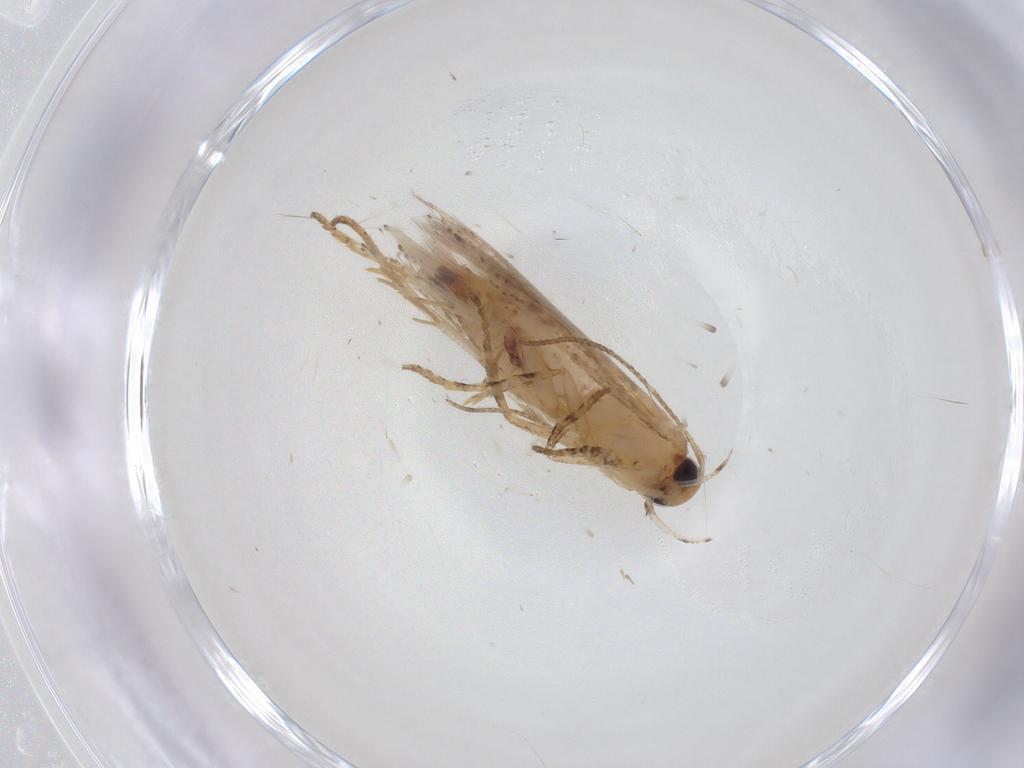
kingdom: Animalia
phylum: Arthropoda
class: Insecta
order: Lepidoptera
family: Gelechiidae
